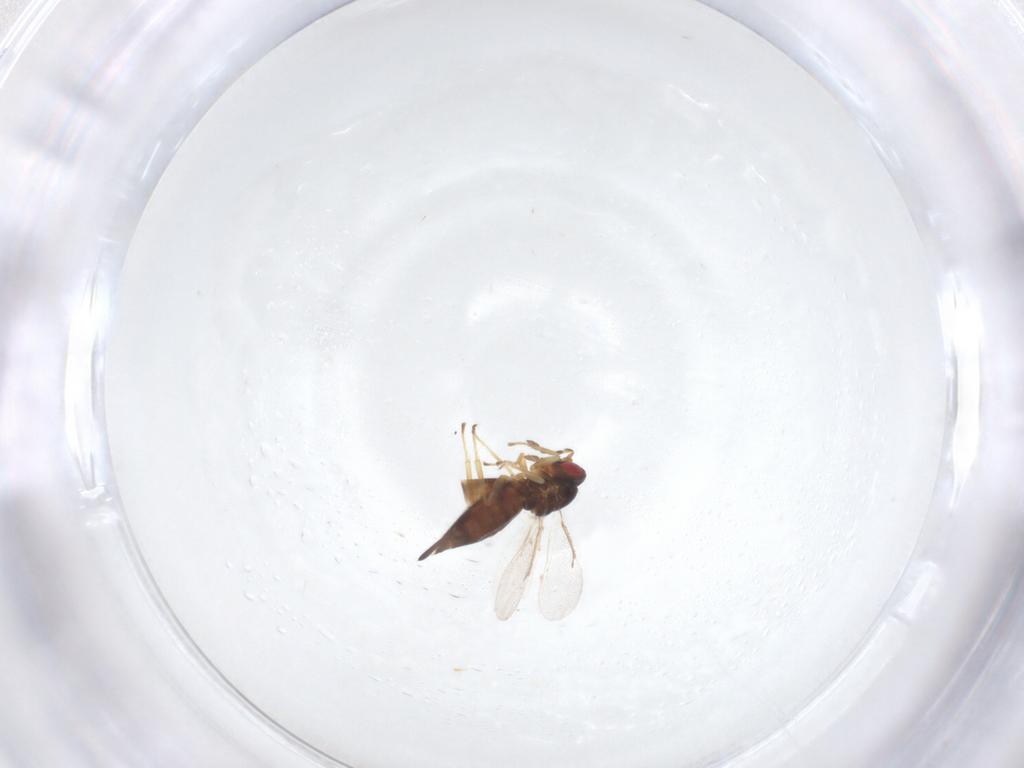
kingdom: Animalia
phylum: Arthropoda
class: Insecta
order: Hymenoptera
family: Eulophidae
